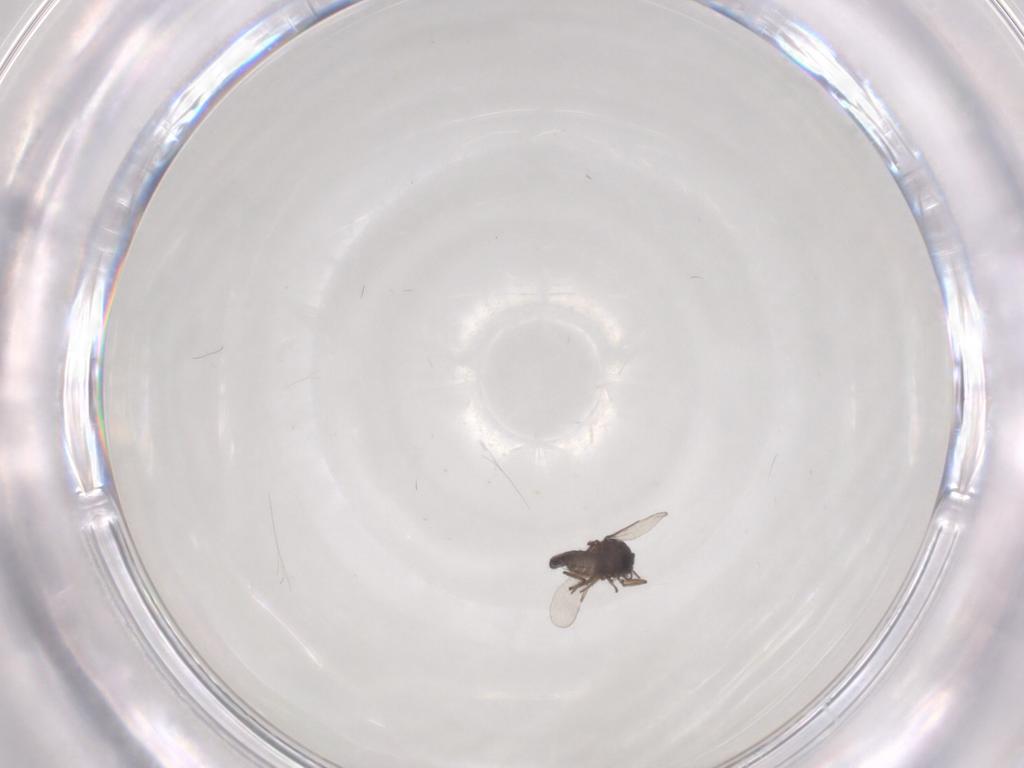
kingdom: Animalia
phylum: Arthropoda
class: Insecta
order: Diptera
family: Ceratopogonidae
